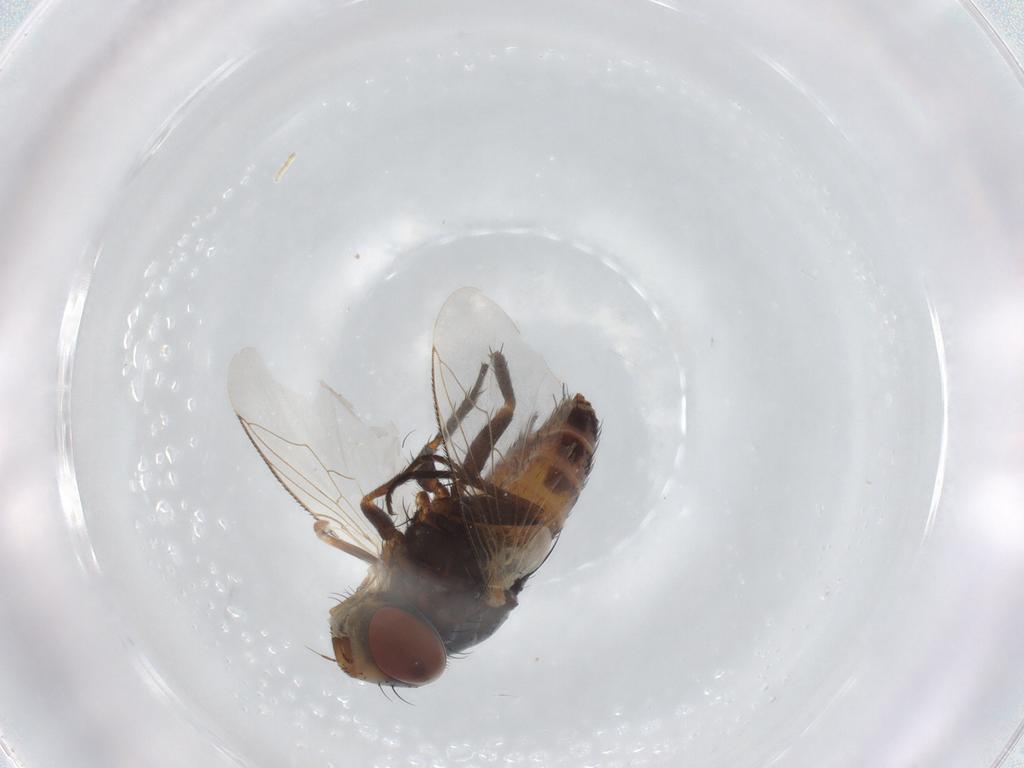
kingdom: Animalia
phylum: Arthropoda
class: Insecta
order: Diptera
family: Sarcophagidae
